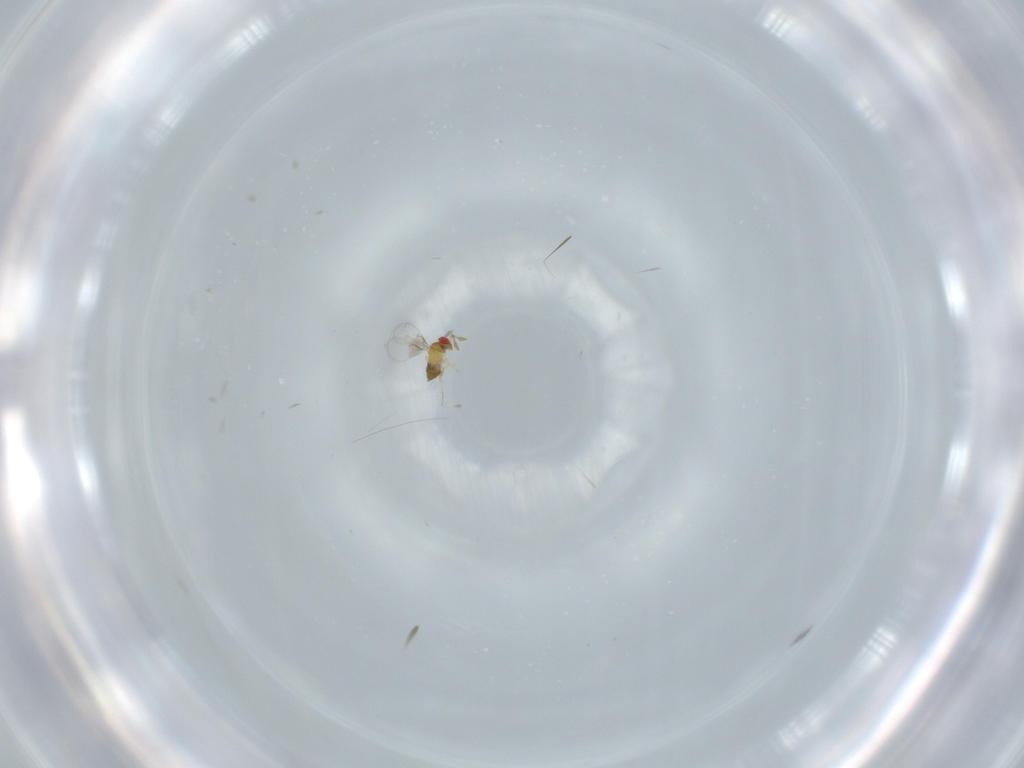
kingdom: Animalia
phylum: Arthropoda
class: Insecta
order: Hymenoptera
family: Trichogrammatidae
